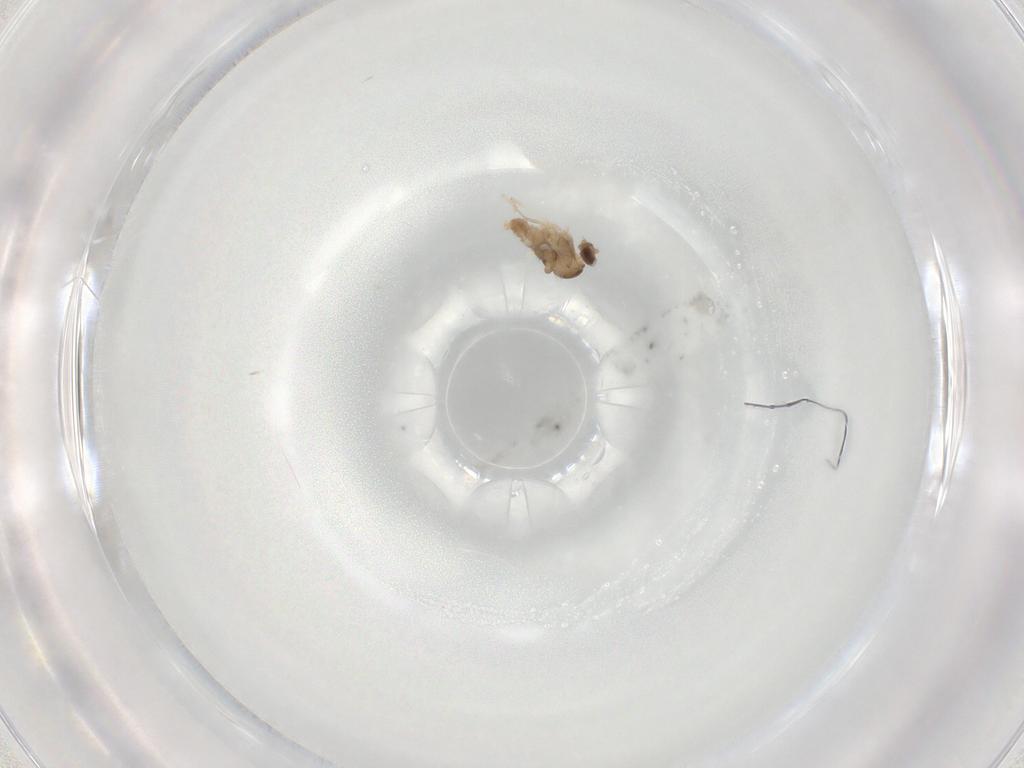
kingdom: Animalia
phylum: Arthropoda
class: Insecta
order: Diptera
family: Cecidomyiidae
